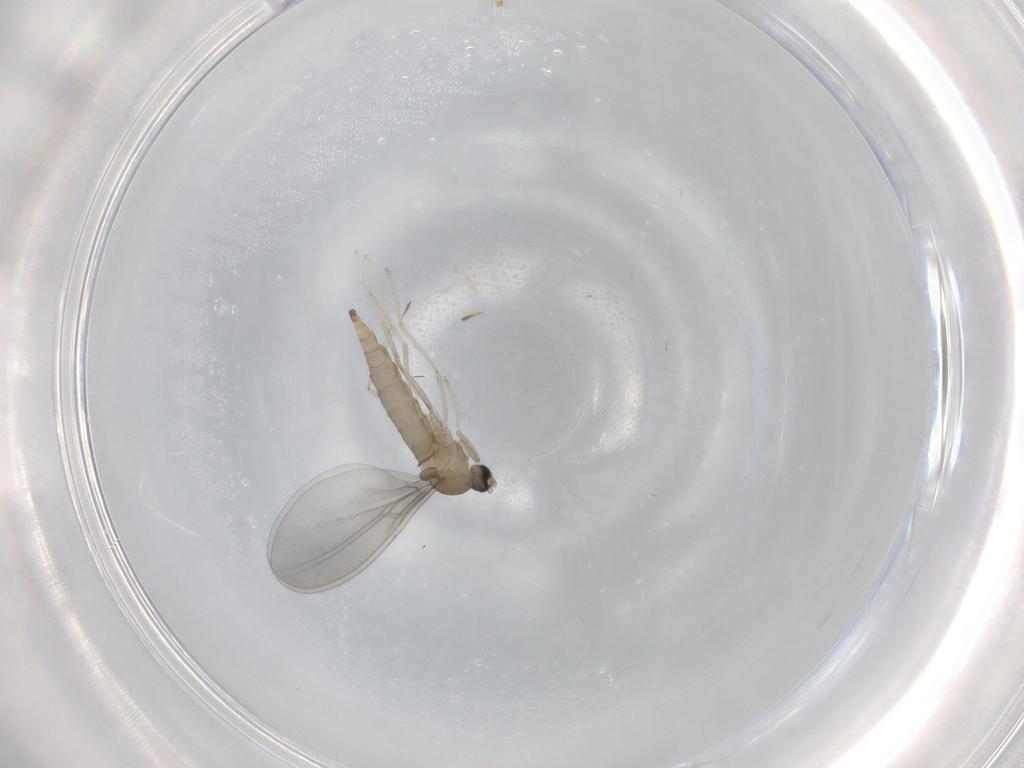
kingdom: Animalia
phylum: Arthropoda
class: Insecta
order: Diptera
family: Cecidomyiidae
